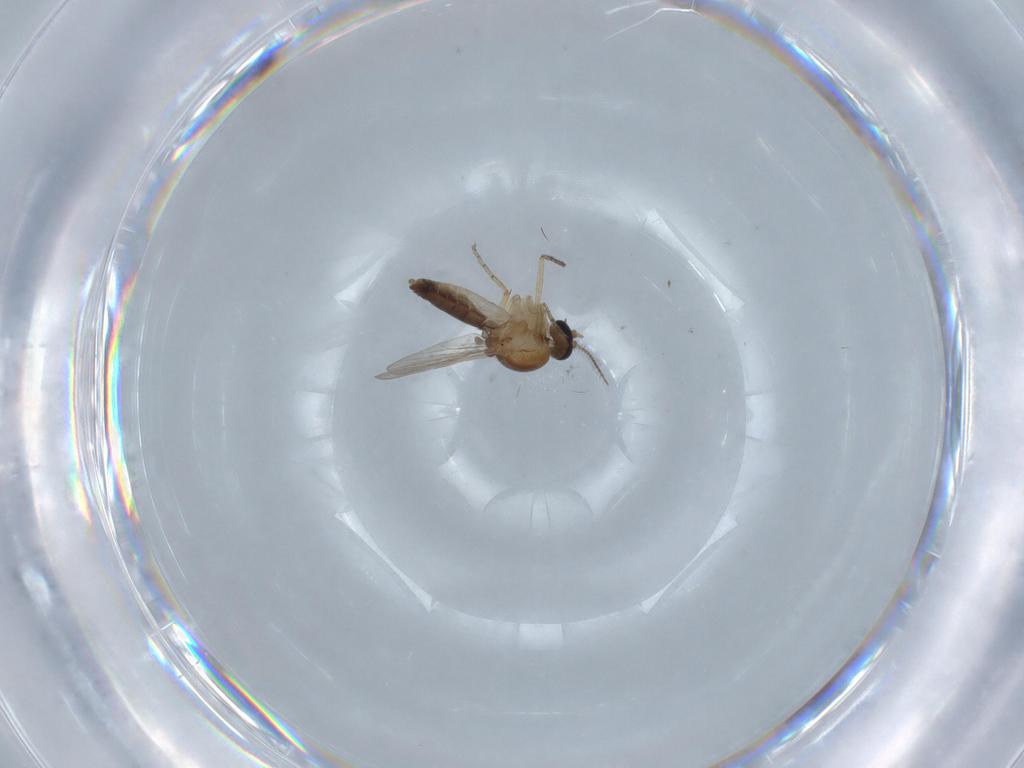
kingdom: Animalia
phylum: Arthropoda
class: Insecta
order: Diptera
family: Ceratopogonidae
